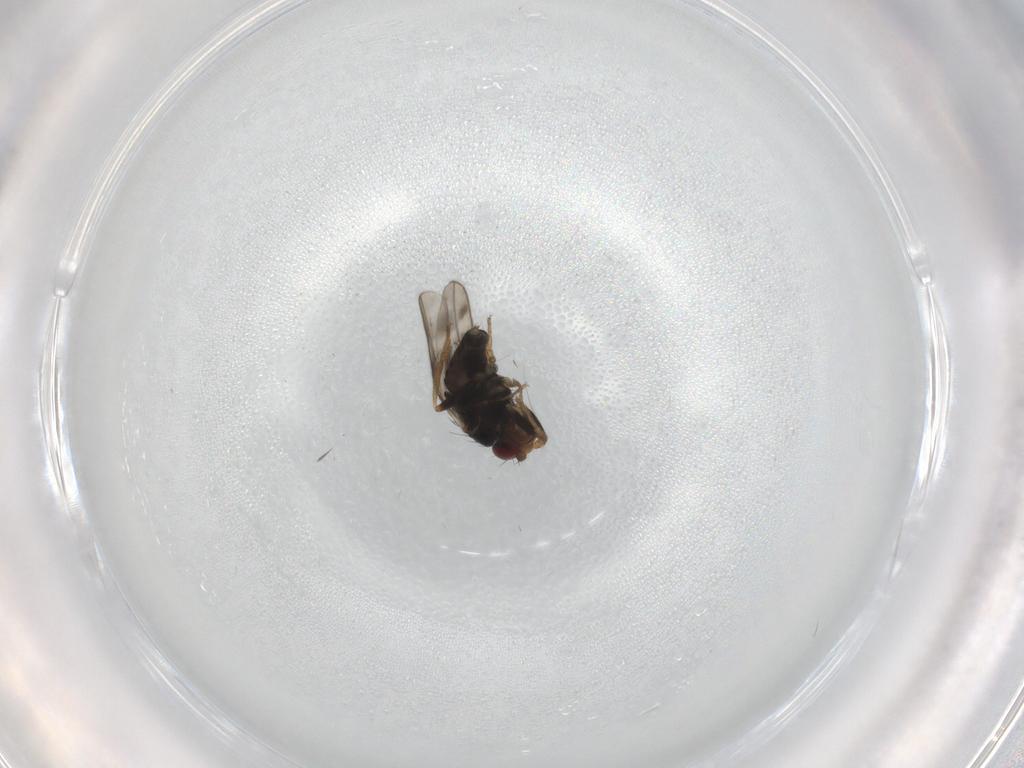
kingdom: Animalia
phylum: Arthropoda
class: Insecta
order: Diptera
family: Sphaeroceridae
